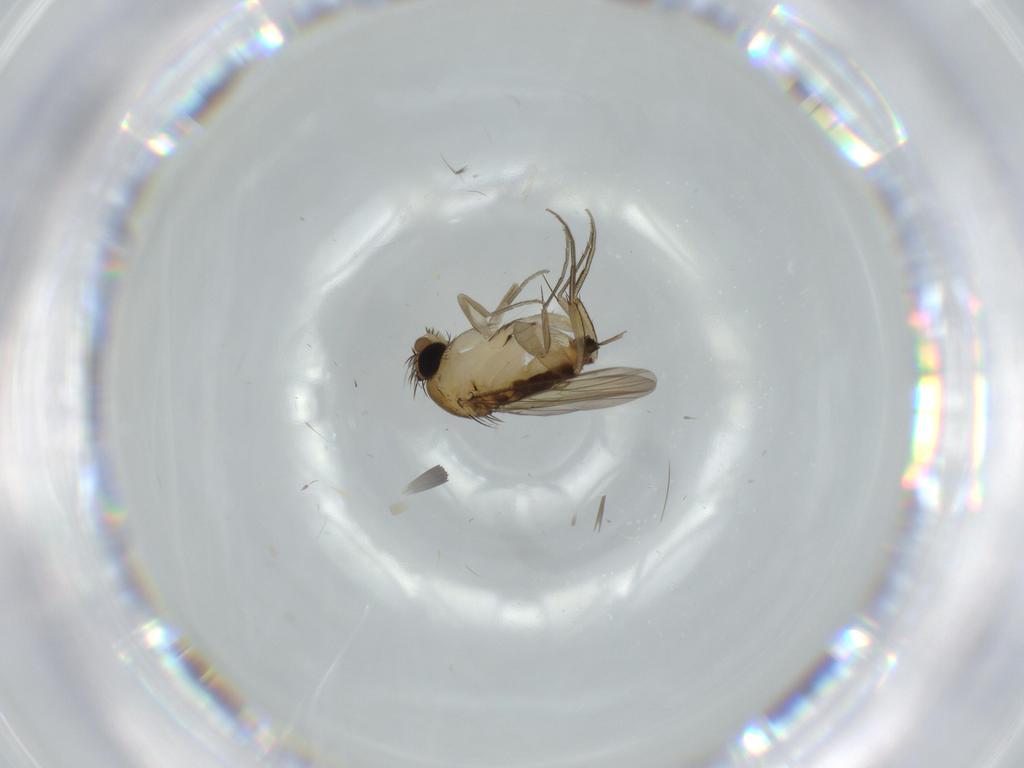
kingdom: Animalia
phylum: Arthropoda
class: Insecta
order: Diptera
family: Phoridae
